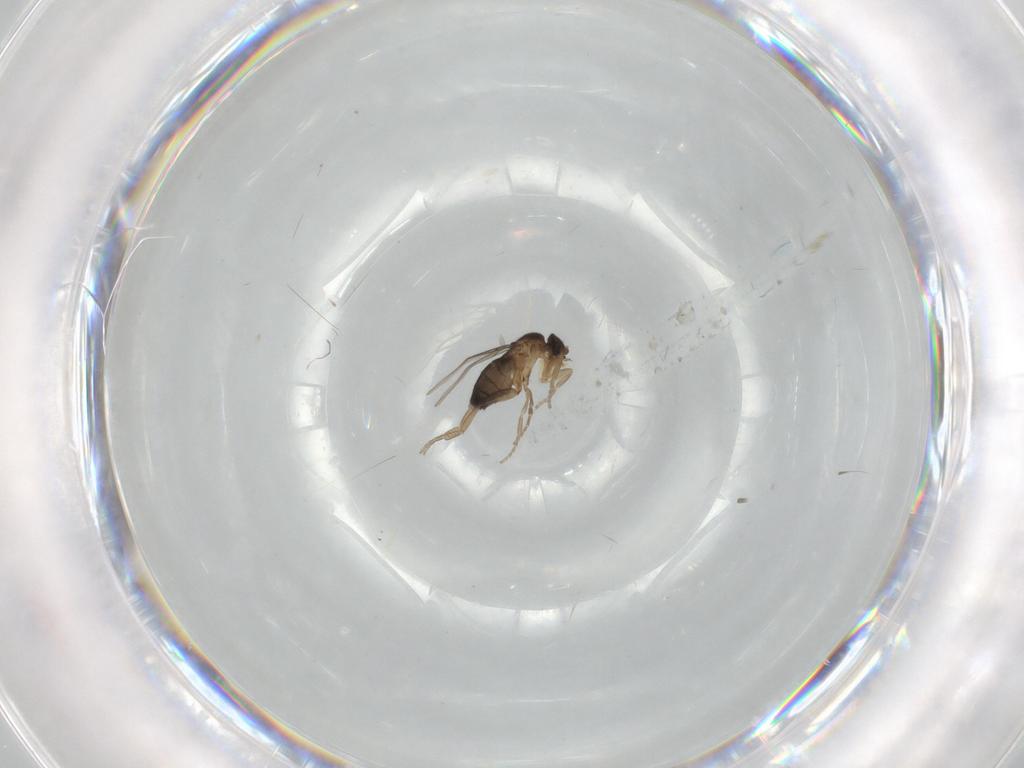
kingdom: Animalia
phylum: Arthropoda
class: Insecta
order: Diptera
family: Phoridae
